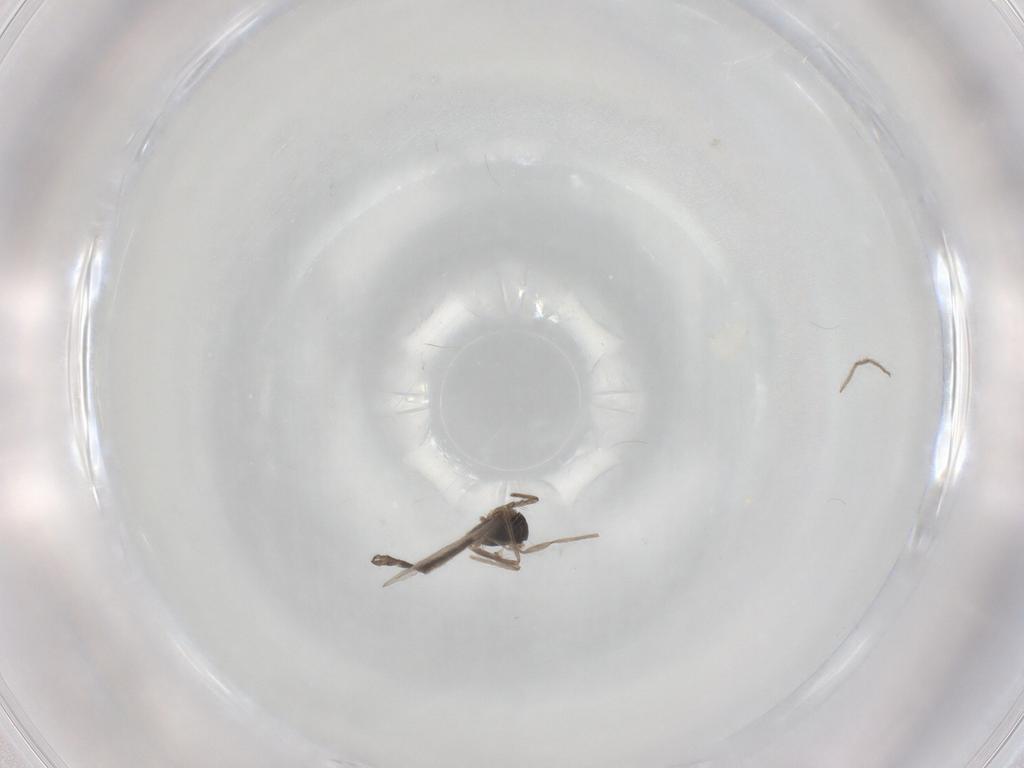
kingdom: Animalia
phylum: Arthropoda
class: Insecta
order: Diptera
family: Chironomidae
